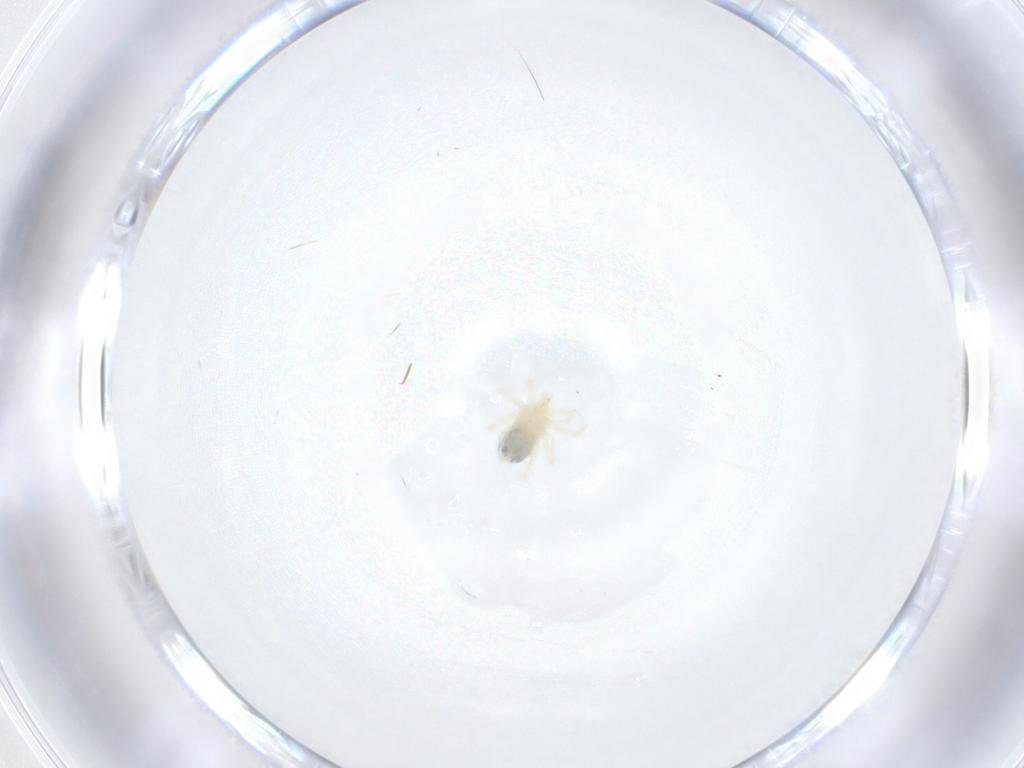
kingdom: Animalia
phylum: Arthropoda
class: Arachnida
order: Trombidiformes
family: Anystidae
